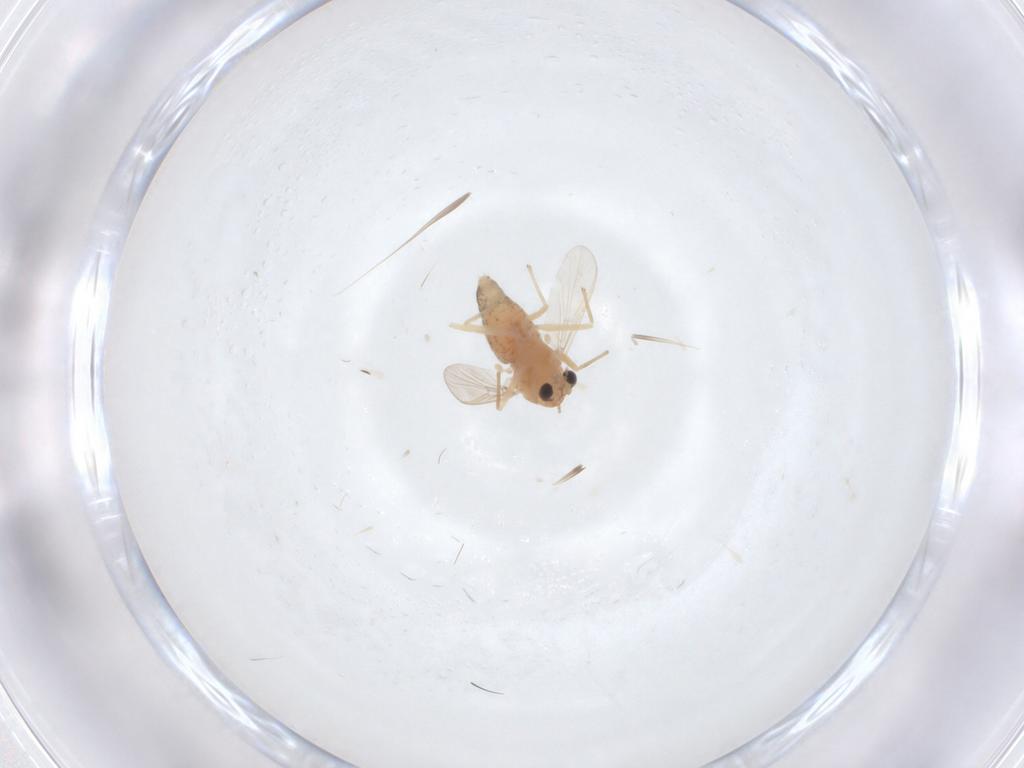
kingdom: Animalia
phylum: Arthropoda
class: Insecta
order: Diptera
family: Chironomidae
